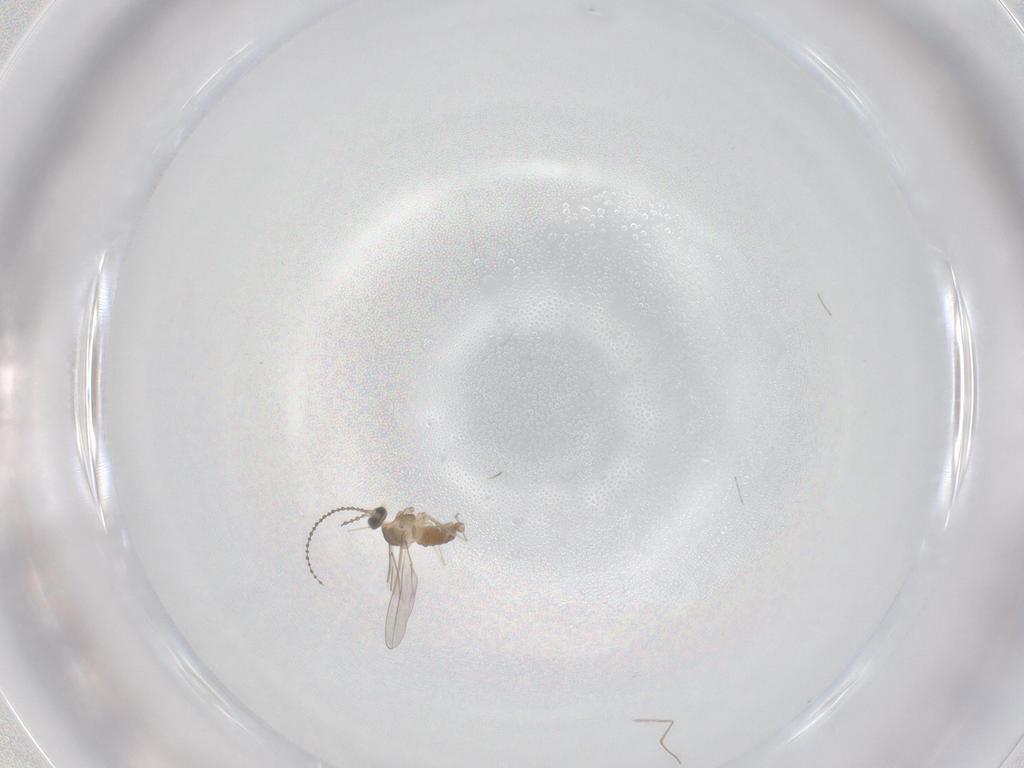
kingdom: Animalia
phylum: Arthropoda
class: Insecta
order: Diptera
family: Cecidomyiidae
